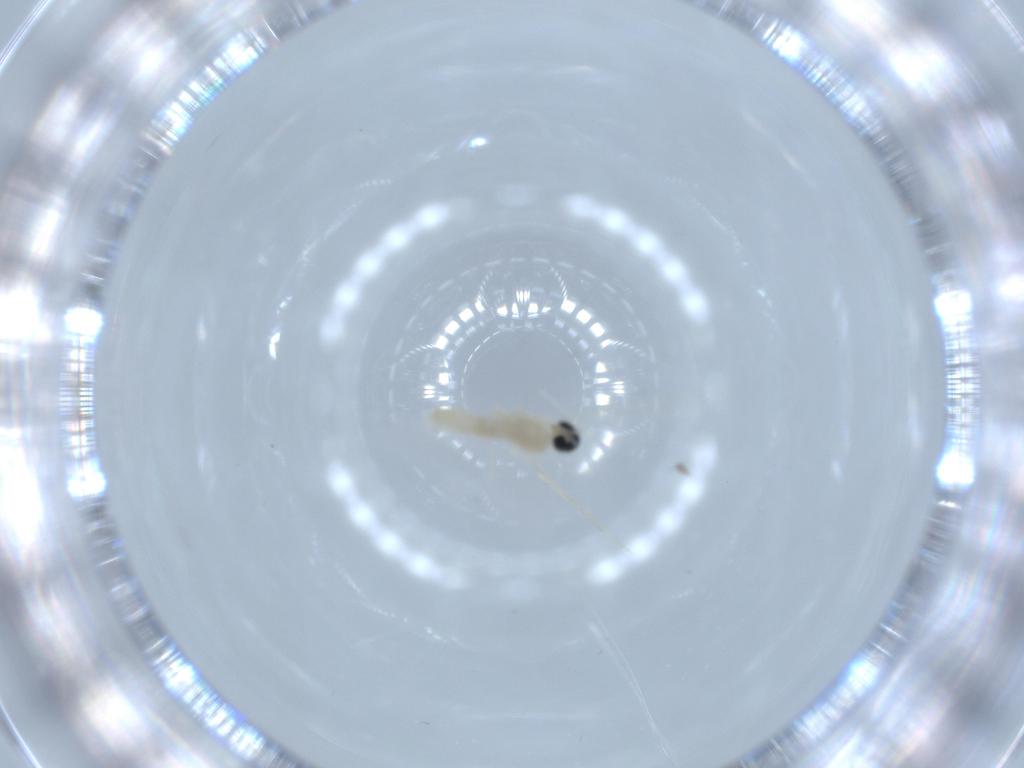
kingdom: Animalia
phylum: Arthropoda
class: Insecta
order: Diptera
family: Cecidomyiidae
